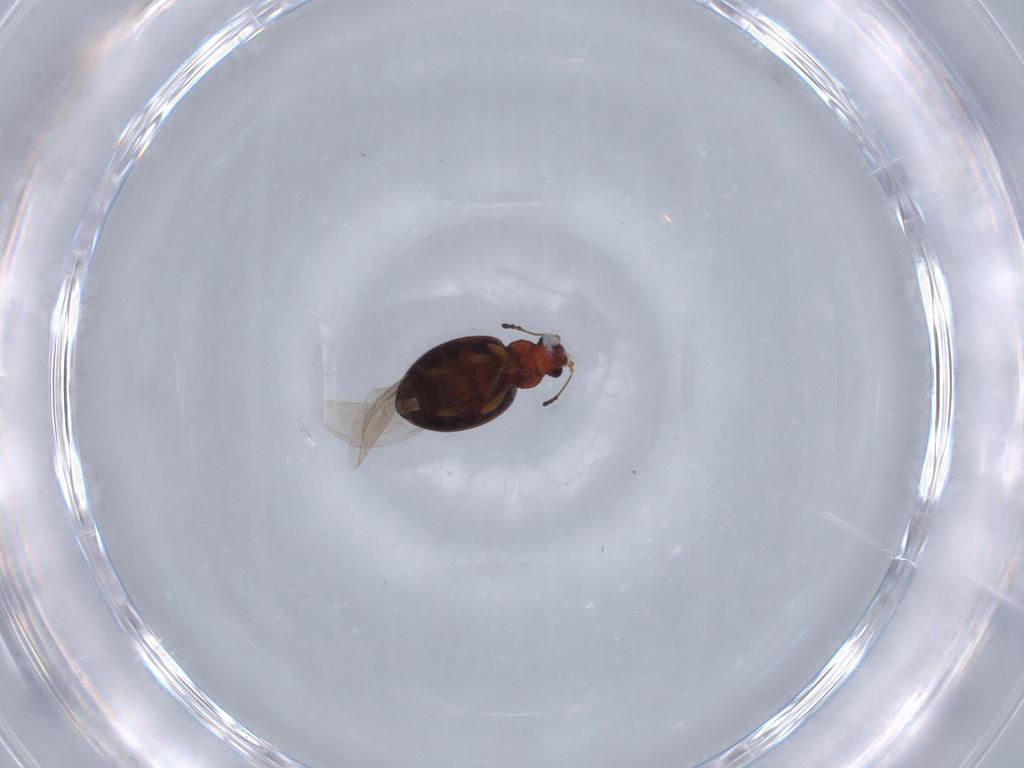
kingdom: Animalia
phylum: Arthropoda
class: Insecta
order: Coleoptera
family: Latridiidae
